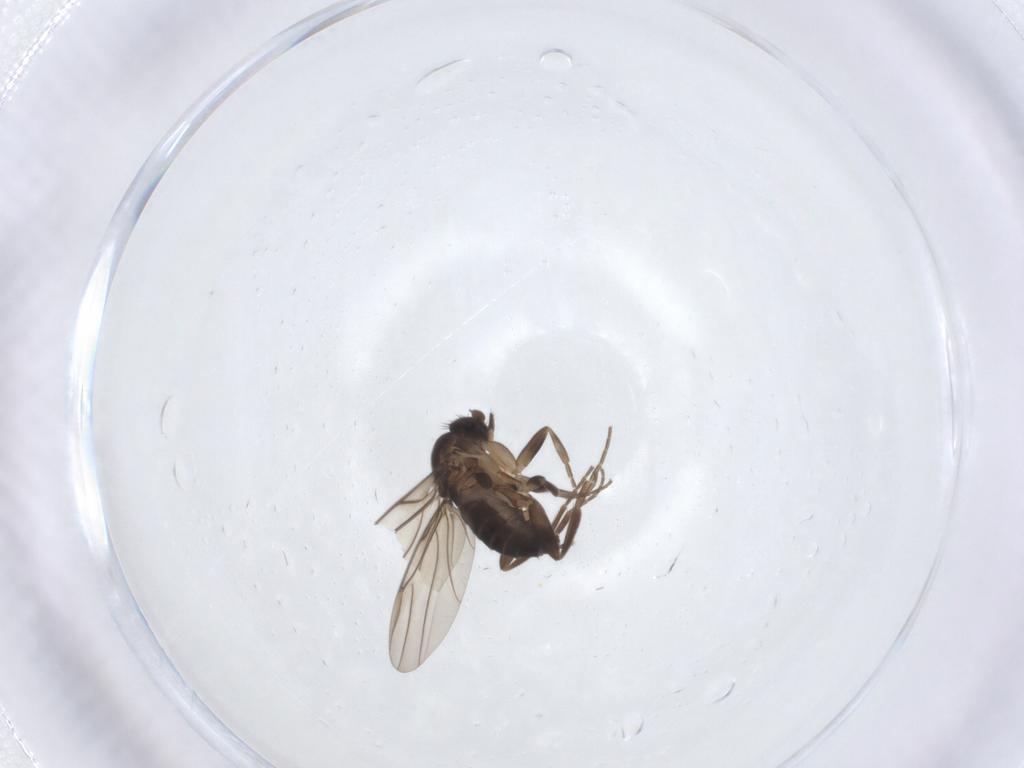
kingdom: Animalia
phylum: Arthropoda
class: Insecta
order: Diptera
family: Phoridae
